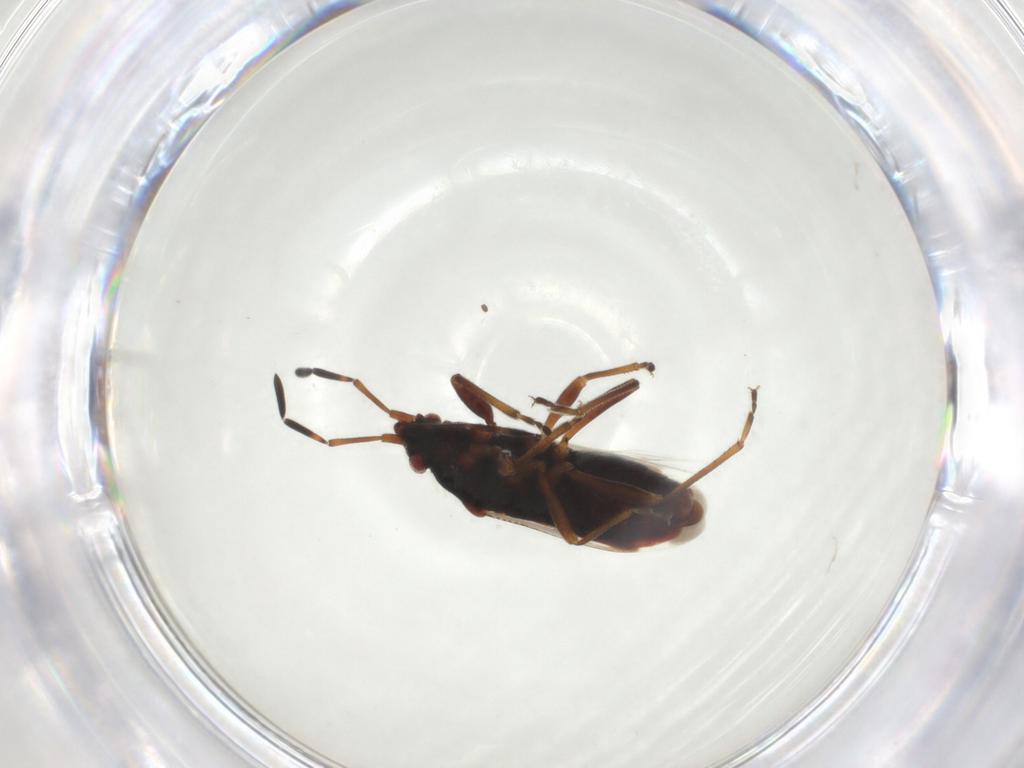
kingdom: Animalia
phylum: Arthropoda
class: Insecta
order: Hemiptera
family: Rhyparochromidae
